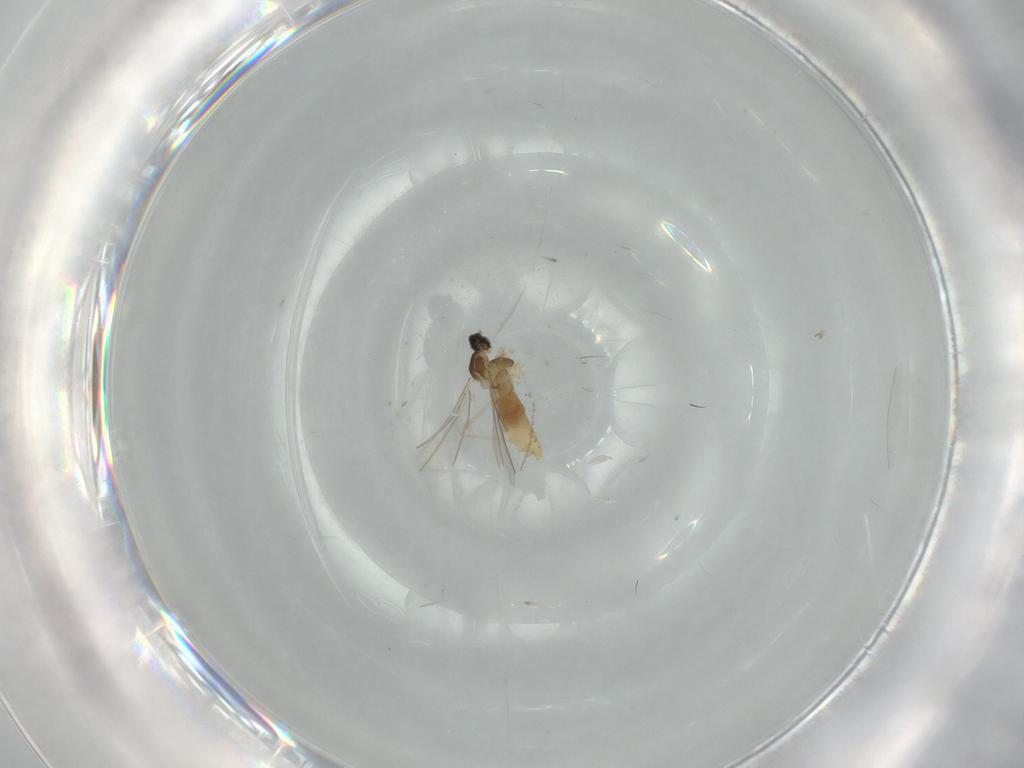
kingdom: Animalia
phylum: Arthropoda
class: Insecta
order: Diptera
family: Cecidomyiidae
